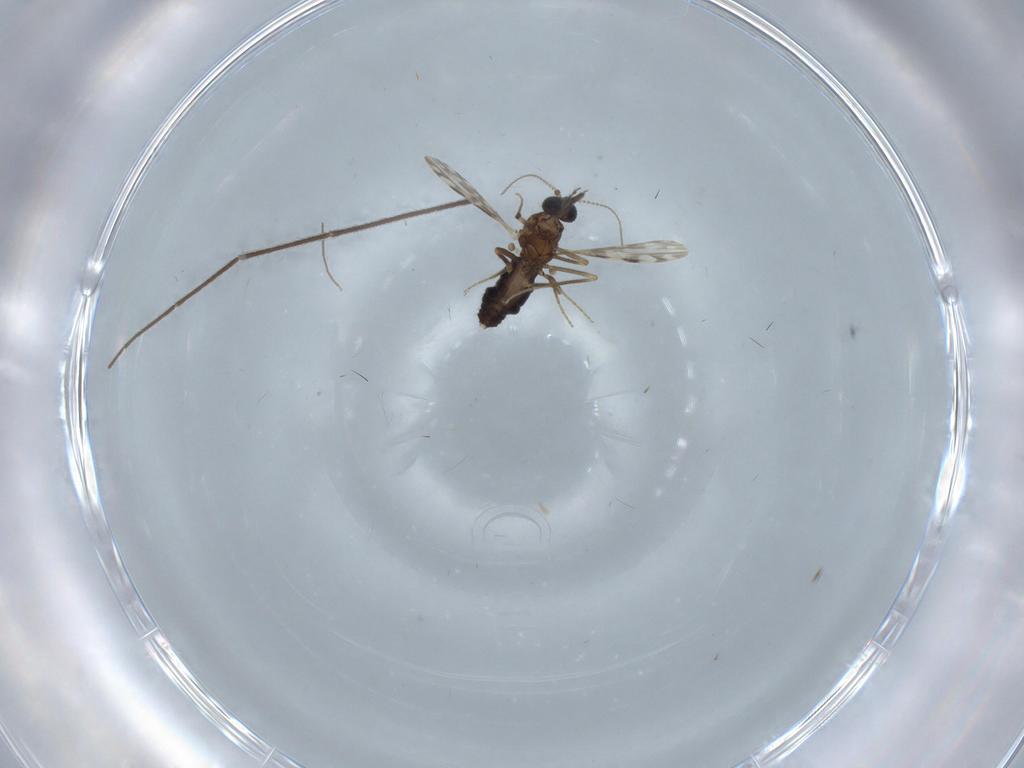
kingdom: Animalia
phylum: Arthropoda
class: Insecta
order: Diptera
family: Ceratopogonidae
